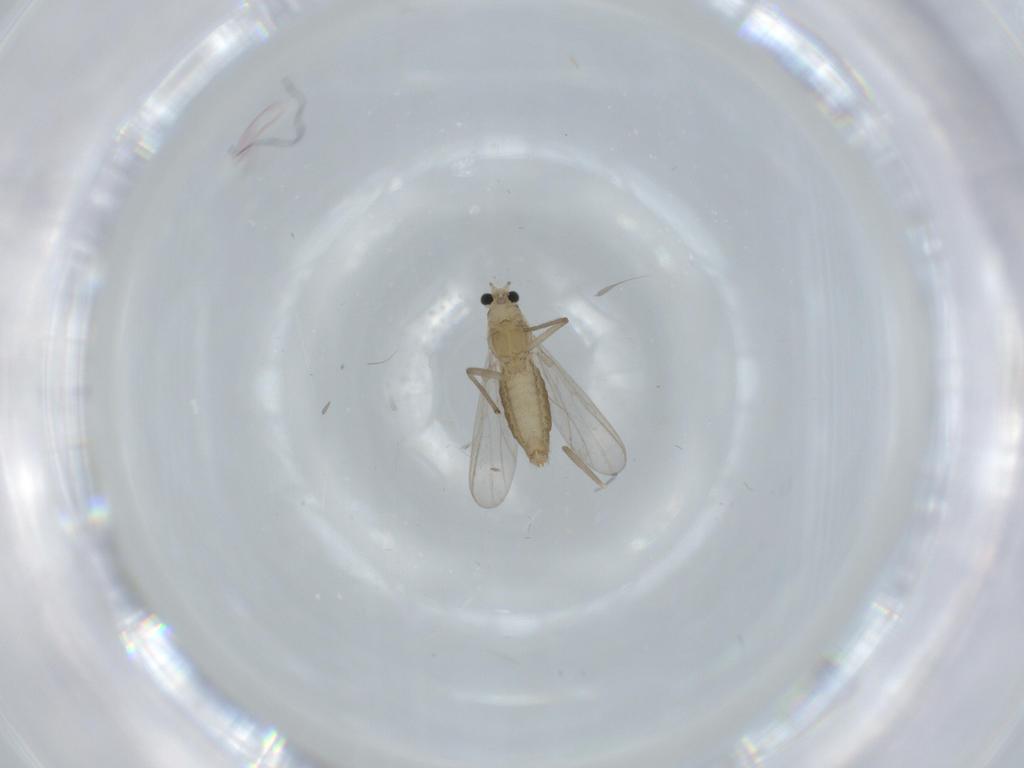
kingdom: Animalia
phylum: Arthropoda
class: Insecta
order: Diptera
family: Chironomidae
